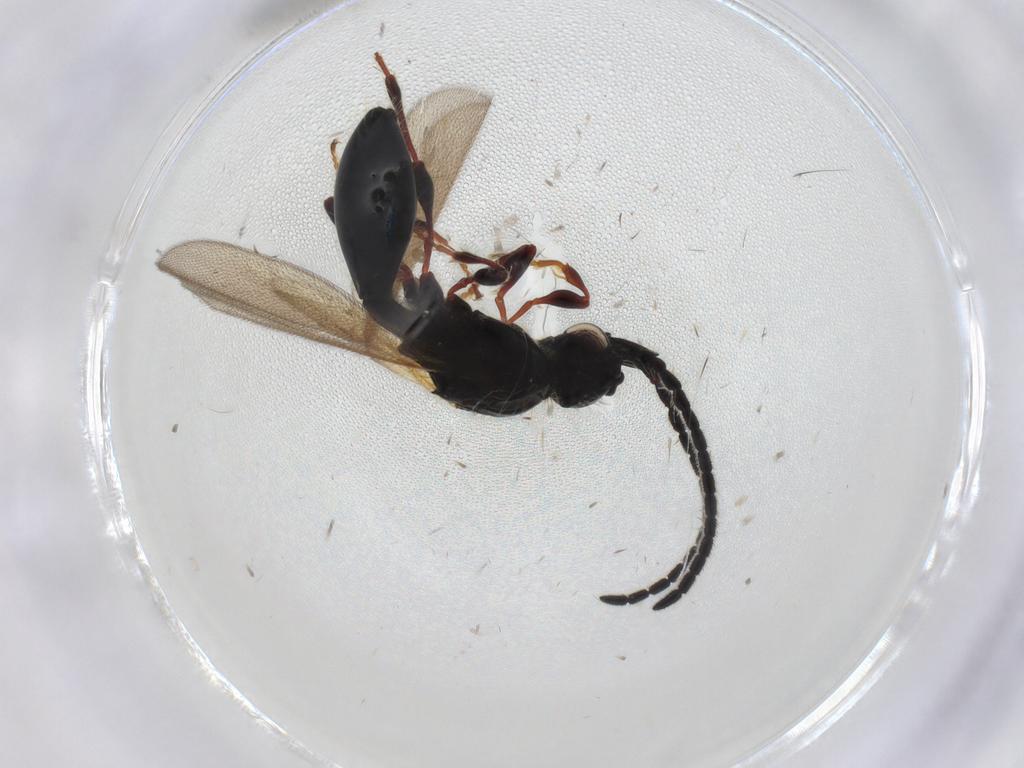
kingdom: Animalia
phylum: Arthropoda
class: Insecta
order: Hymenoptera
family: Diapriidae
